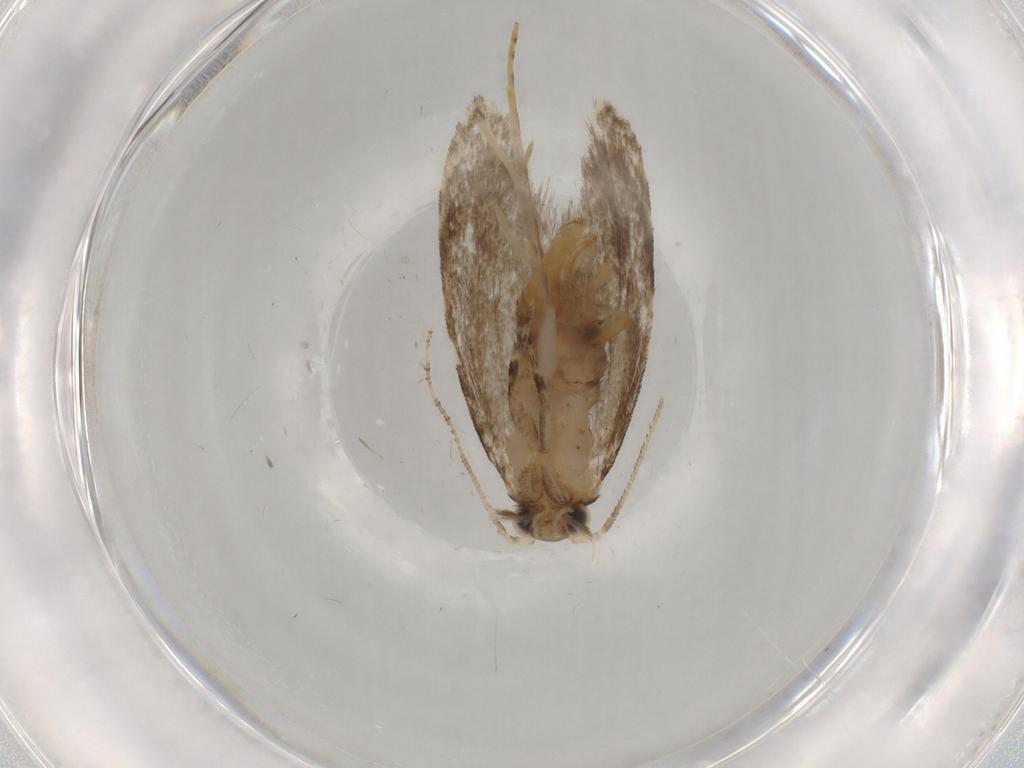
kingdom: Animalia
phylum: Arthropoda
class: Insecta
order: Lepidoptera
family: Tineidae
